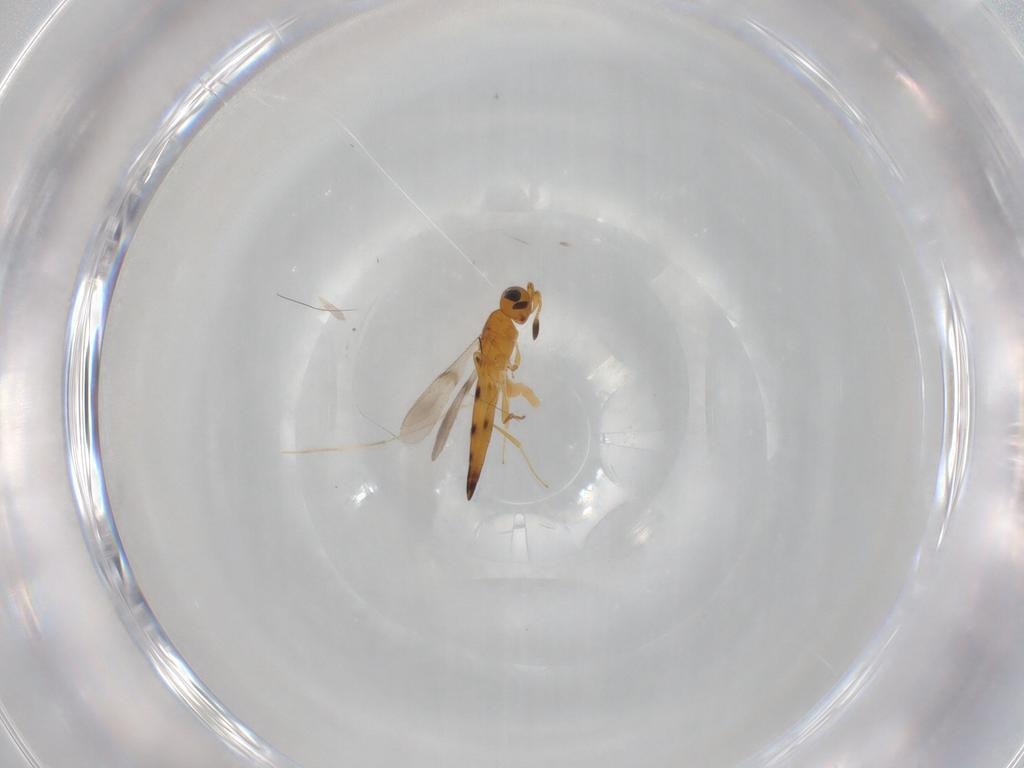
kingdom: Animalia
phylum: Arthropoda
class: Insecta
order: Hymenoptera
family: Scelionidae
